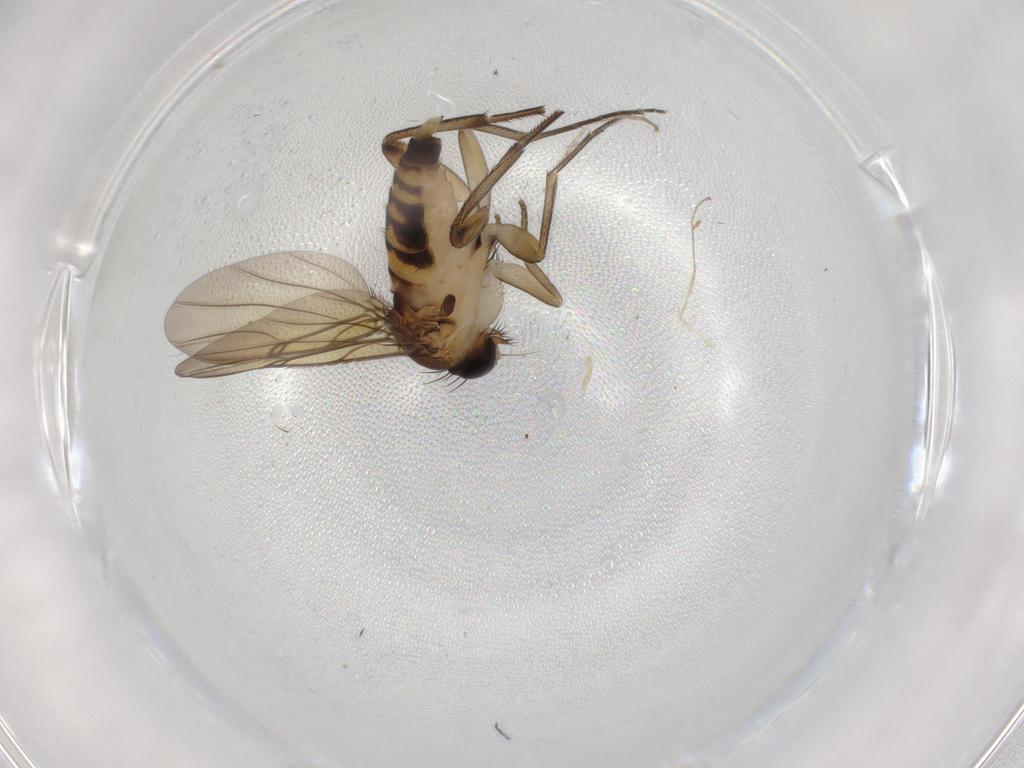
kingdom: Animalia
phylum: Arthropoda
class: Insecta
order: Diptera
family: Phoridae
